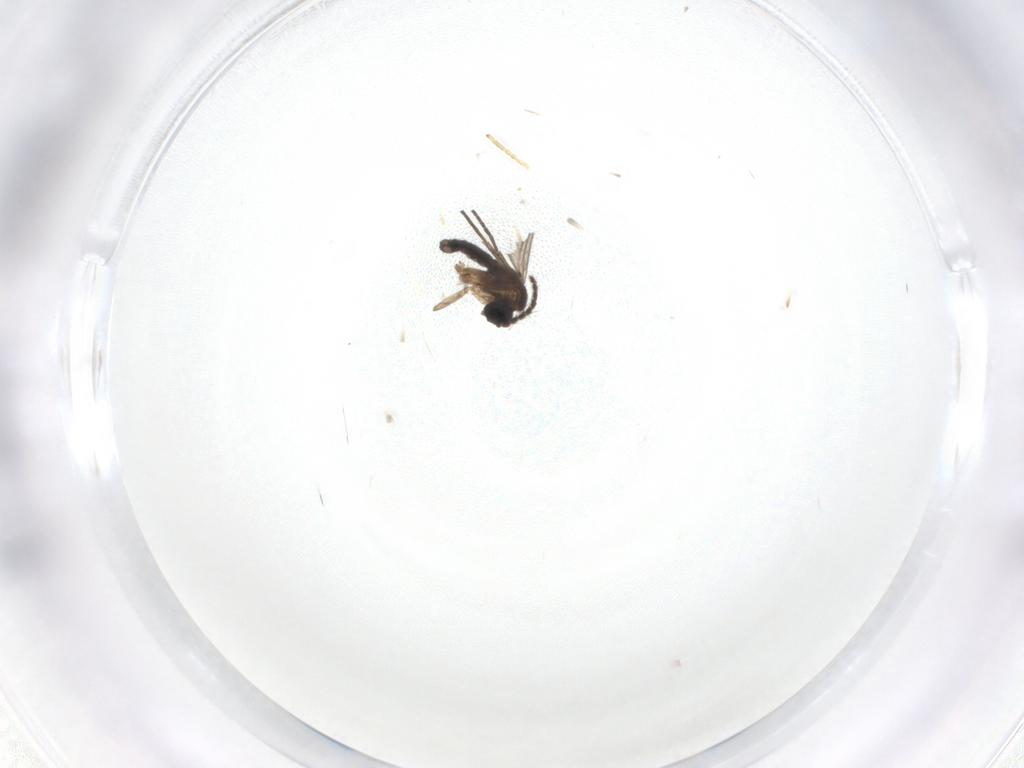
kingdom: Animalia
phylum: Arthropoda
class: Insecta
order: Diptera
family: Chironomidae
